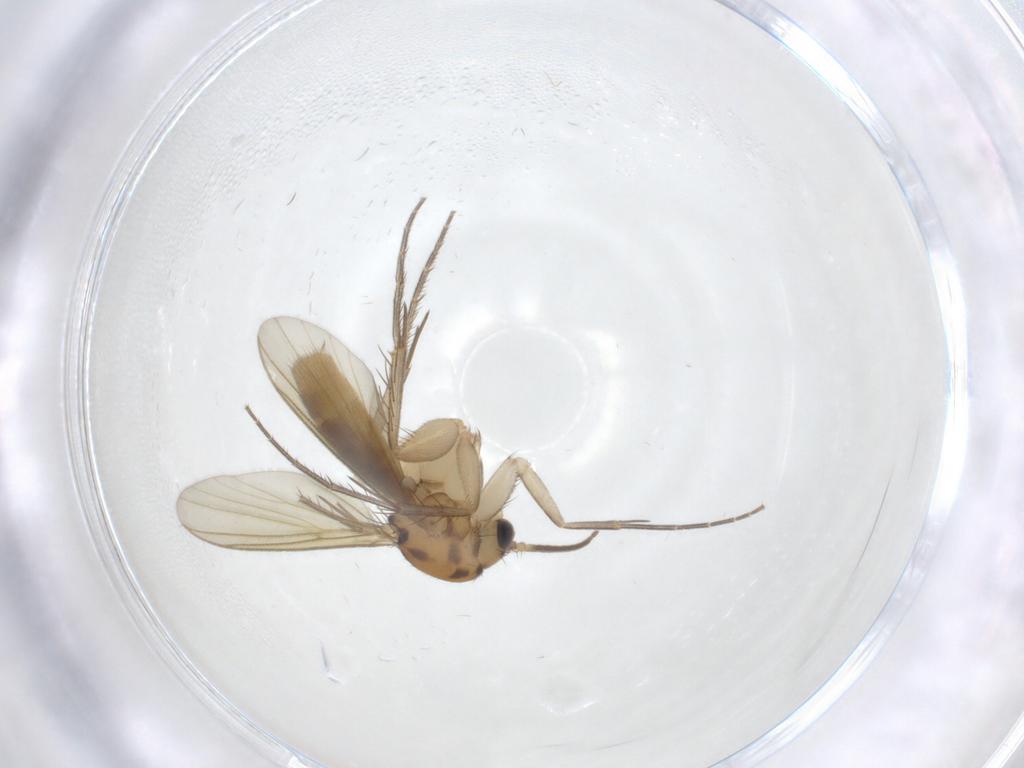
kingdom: Animalia
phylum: Arthropoda
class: Insecta
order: Diptera
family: Mycetophilidae
